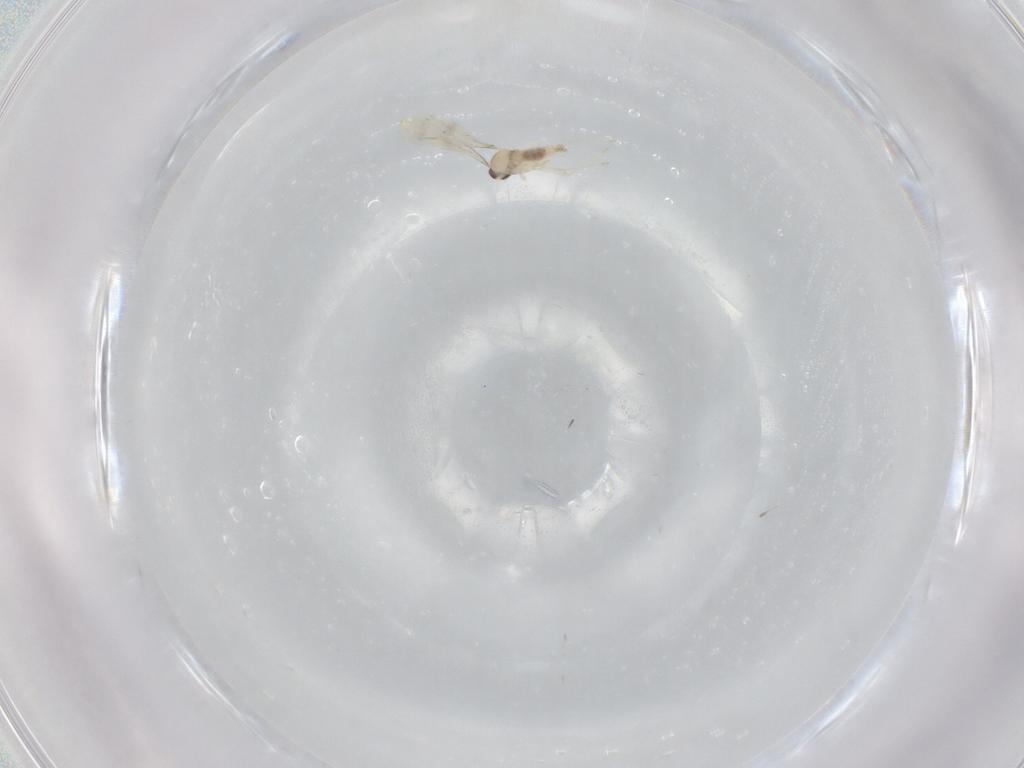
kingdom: Animalia
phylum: Arthropoda
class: Insecta
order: Diptera
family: Cecidomyiidae
